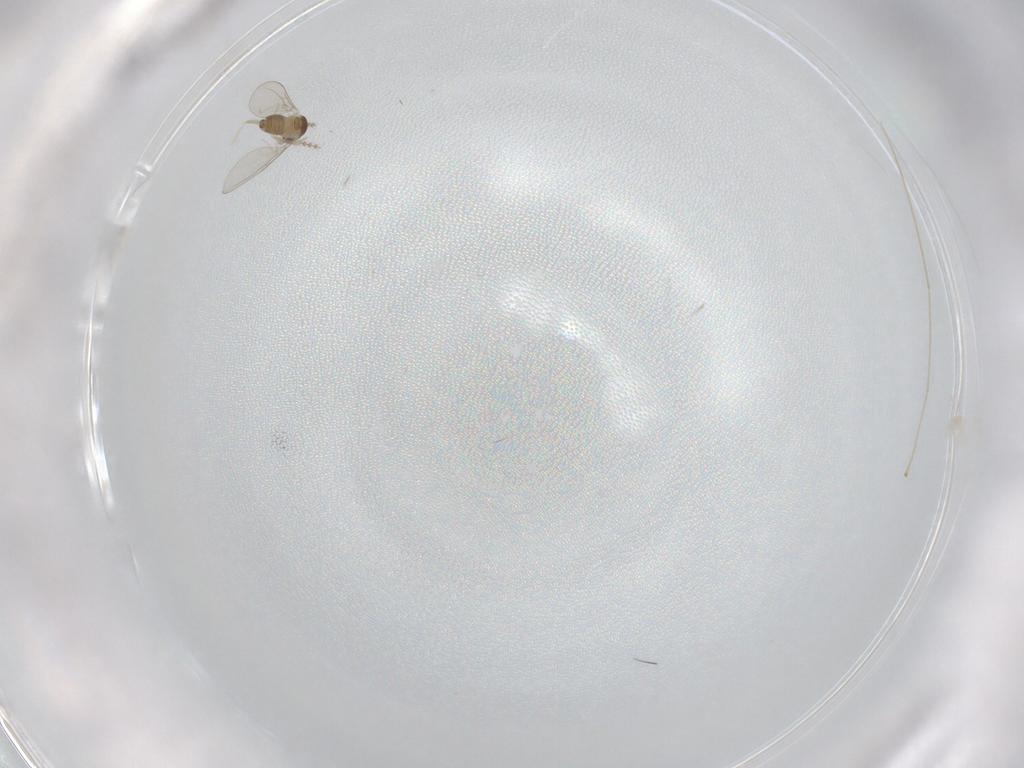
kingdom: Animalia
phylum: Arthropoda
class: Insecta
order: Diptera
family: Cecidomyiidae
